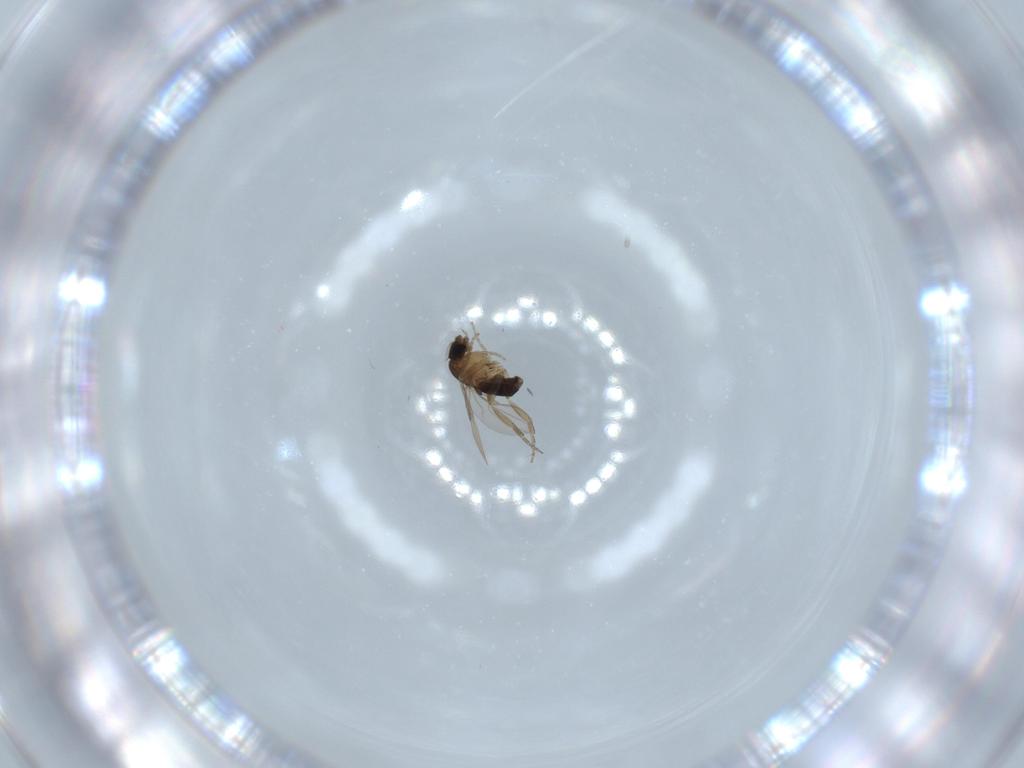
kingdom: Animalia
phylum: Arthropoda
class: Insecta
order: Diptera
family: Phoridae
